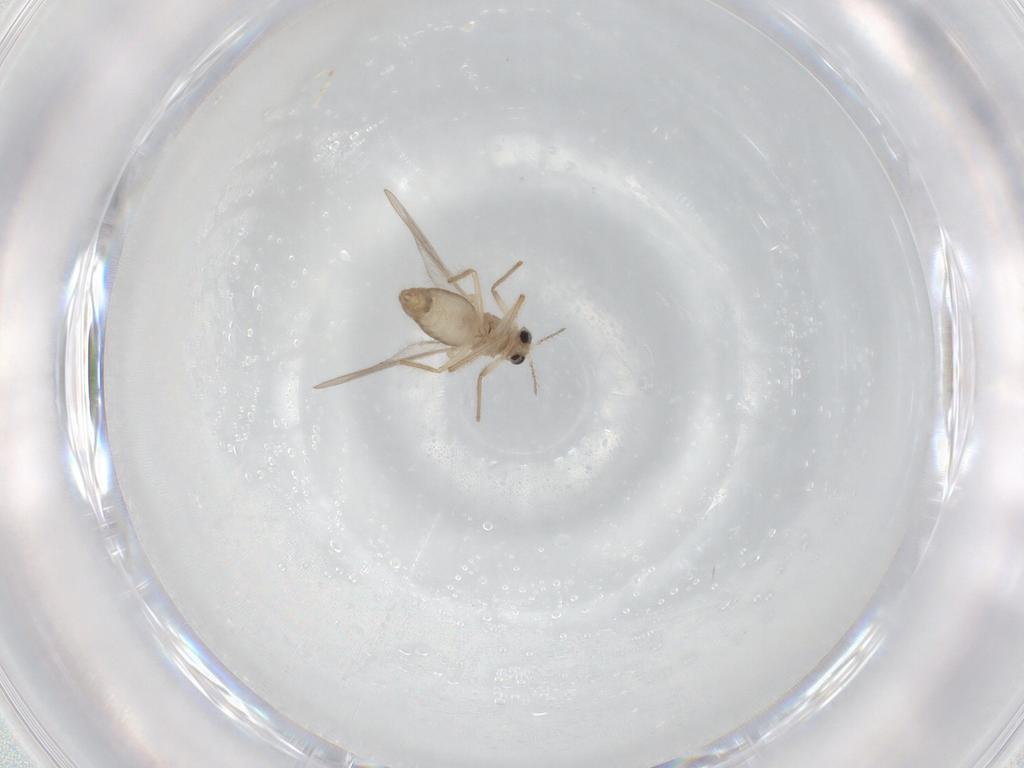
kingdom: Animalia
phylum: Arthropoda
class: Insecta
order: Diptera
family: Chironomidae
